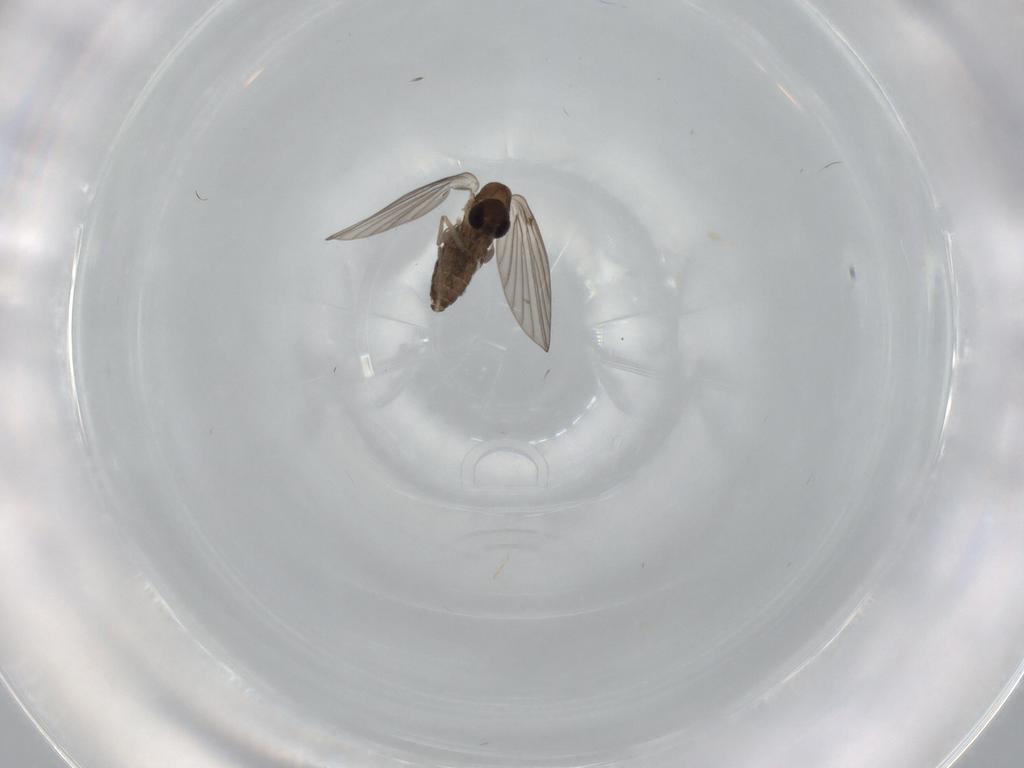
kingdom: Animalia
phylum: Arthropoda
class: Insecta
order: Diptera
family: Psychodidae
